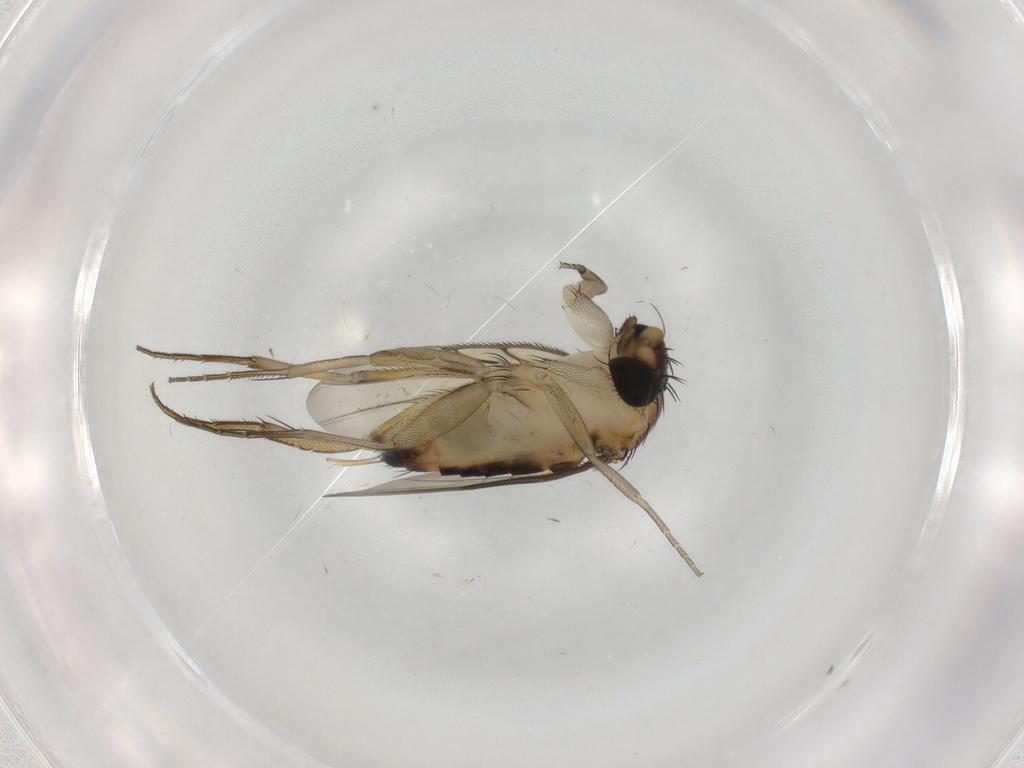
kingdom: Animalia
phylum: Arthropoda
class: Insecta
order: Diptera
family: Phoridae
